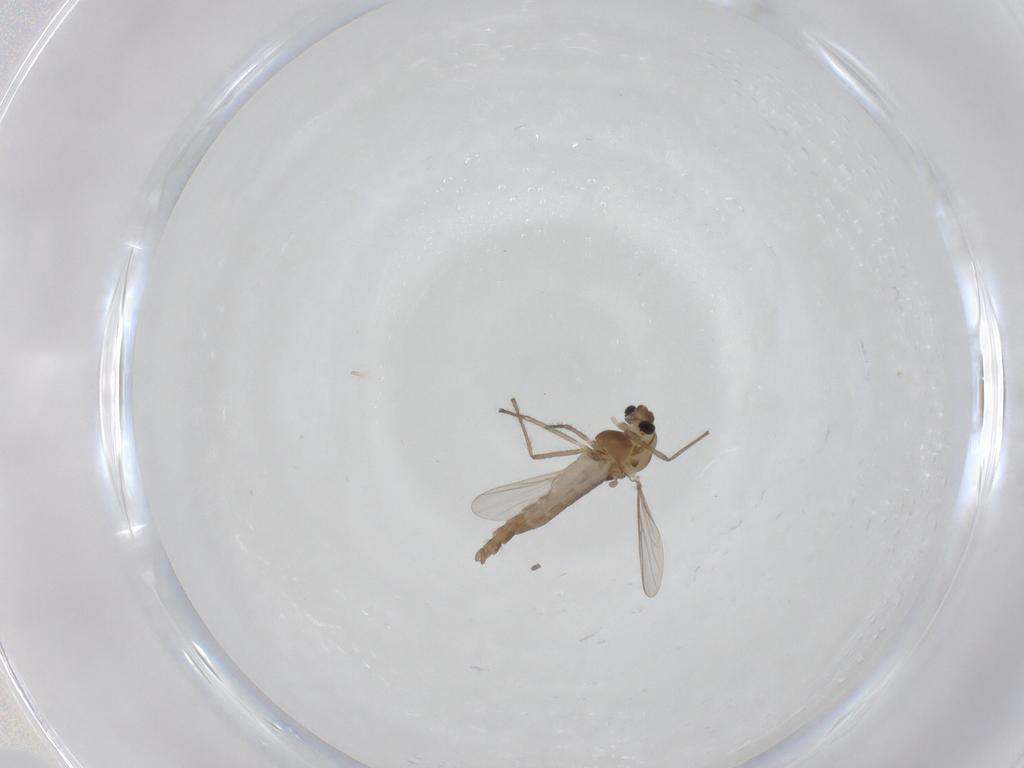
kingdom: Animalia
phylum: Arthropoda
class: Insecta
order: Diptera
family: Chironomidae
